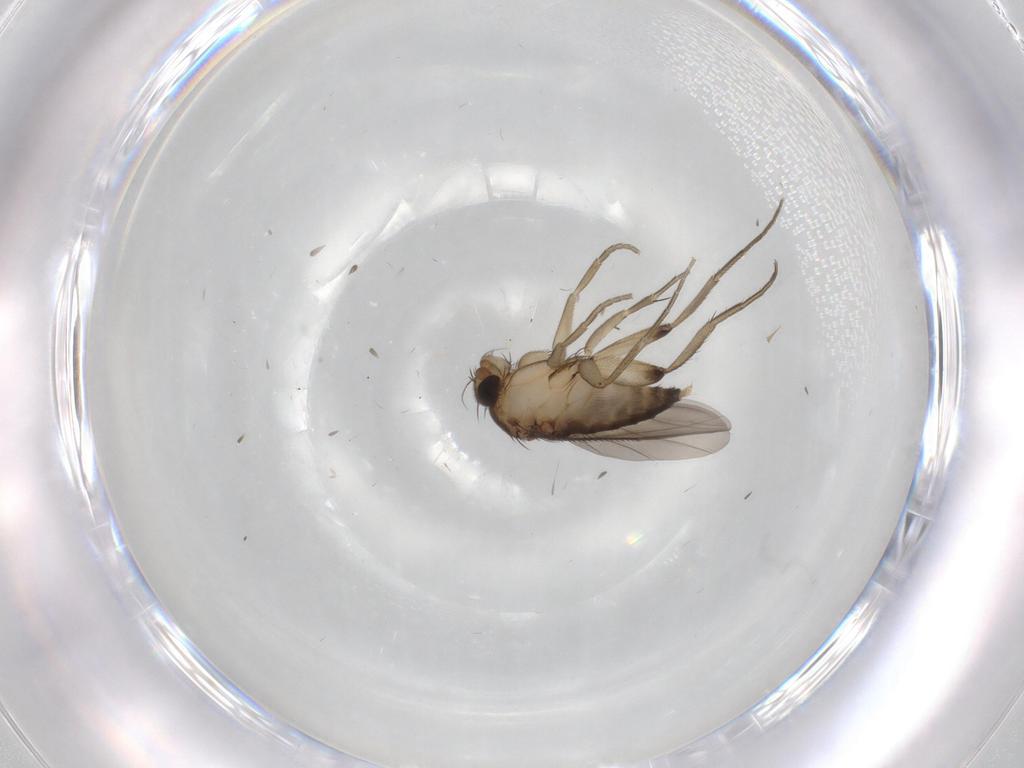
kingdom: Animalia
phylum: Arthropoda
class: Insecta
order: Diptera
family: Phoridae
